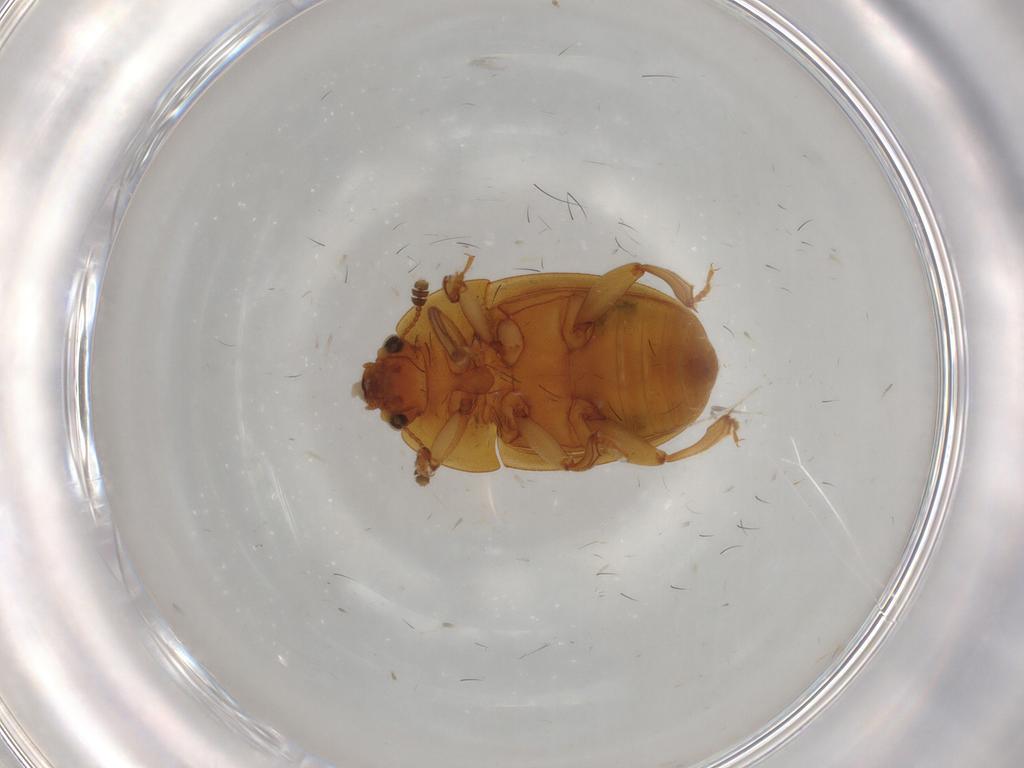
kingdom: Animalia
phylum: Arthropoda
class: Insecta
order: Coleoptera
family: Nitidulidae
